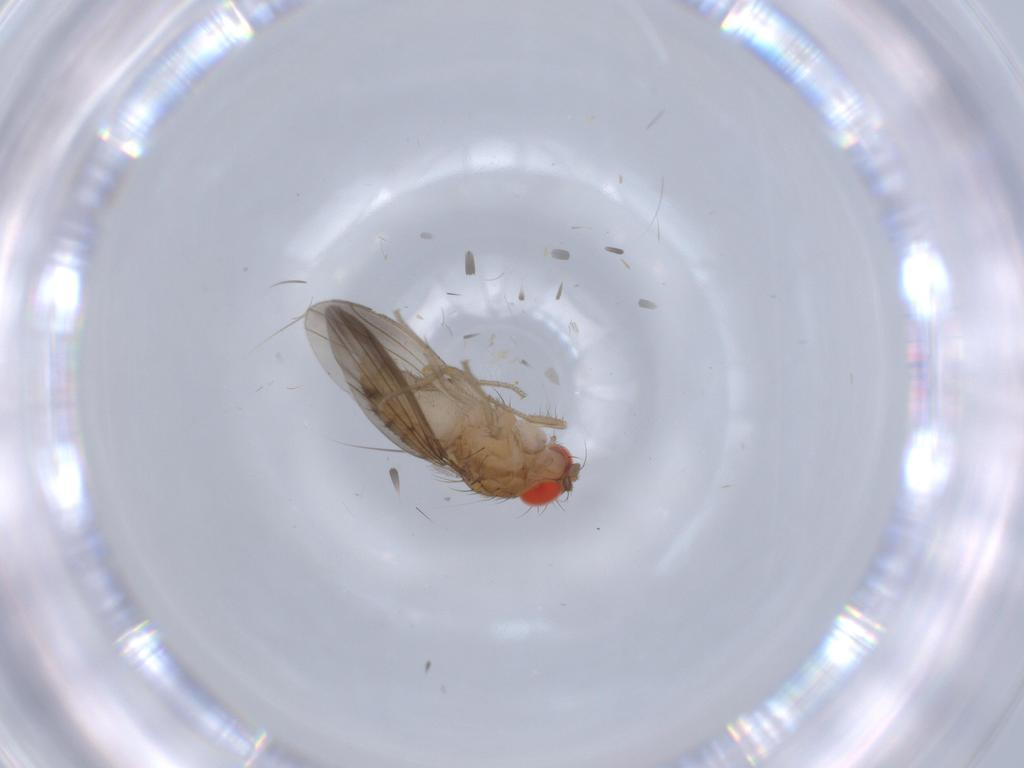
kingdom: Animalia
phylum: Arthropoda
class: Insecta
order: Diptera
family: Drosophilidae
